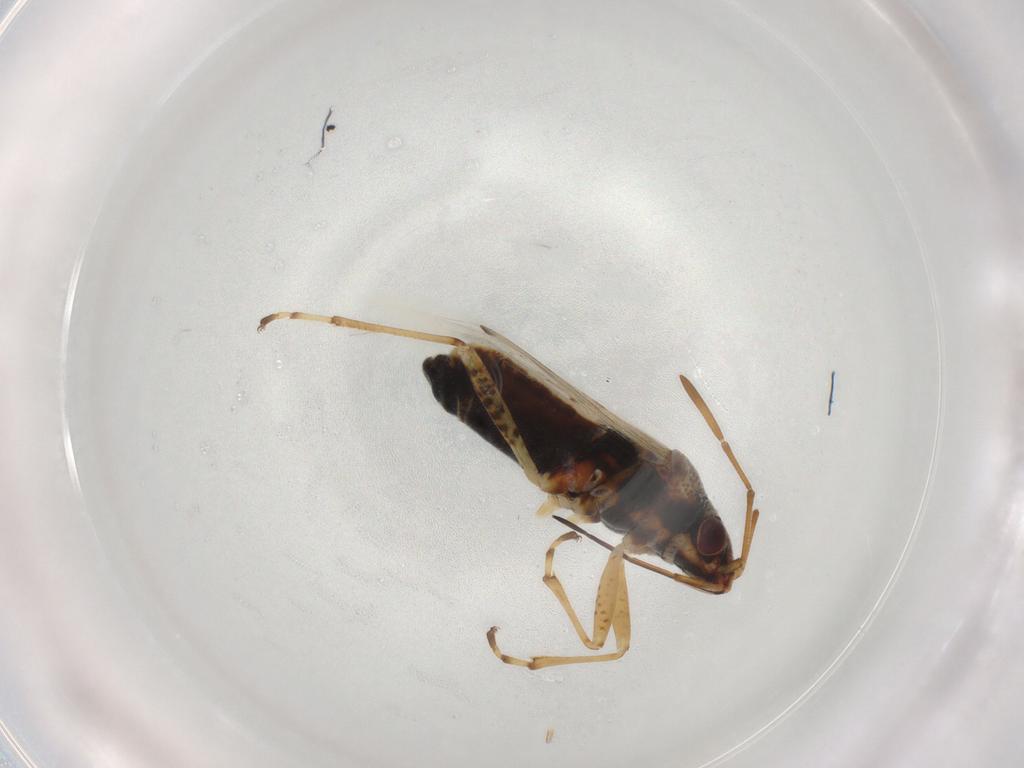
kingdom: Animalia
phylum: Arthropoda
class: Insecta
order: Hemiptera
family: Lygaeidae
